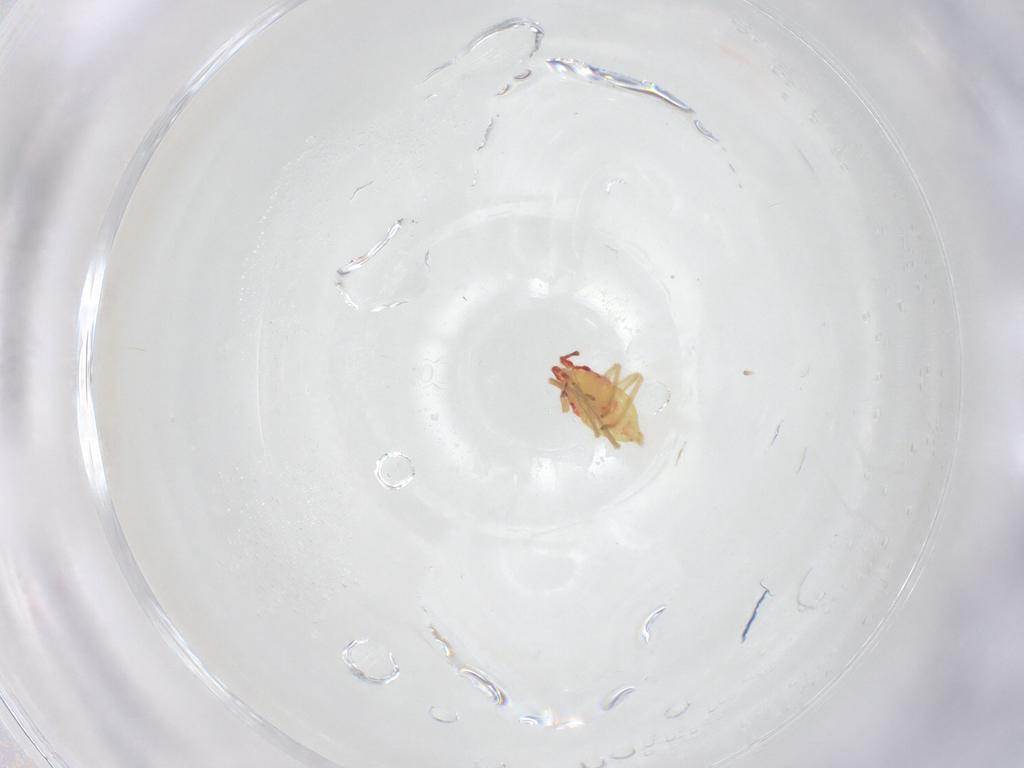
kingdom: Animalia
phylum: Arthropoda
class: Insecta
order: Hemiptera
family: Miridae
